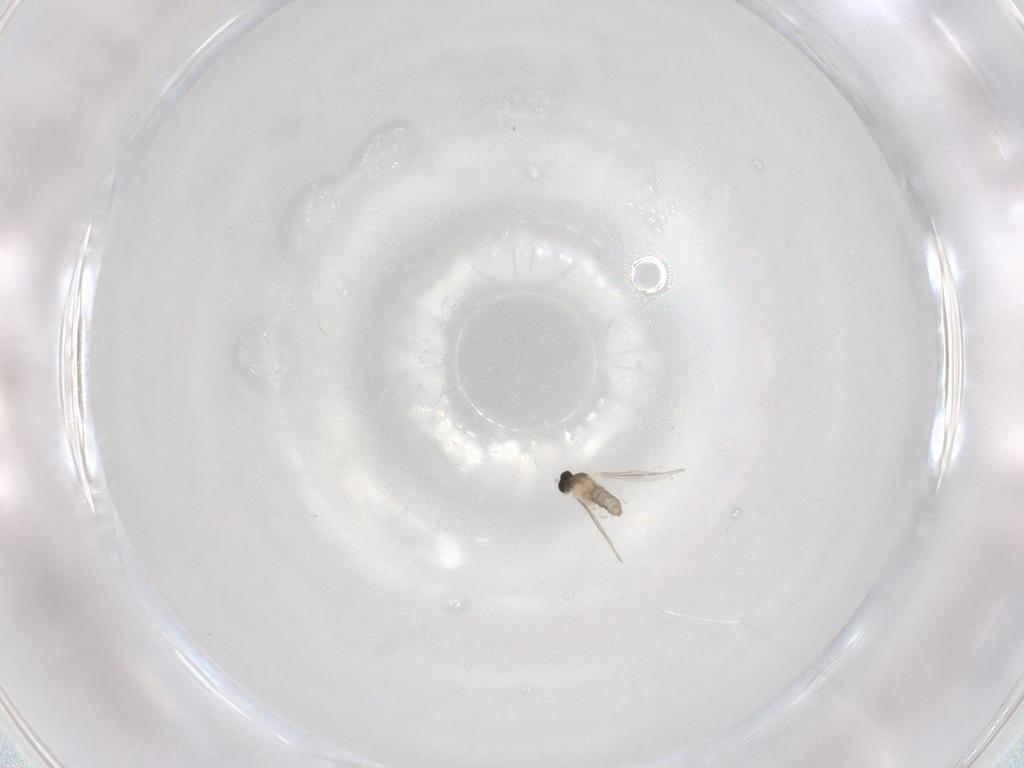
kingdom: Animalia
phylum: Arthropoda
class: Insecta
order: Diptera
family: Cecidomyiidae
